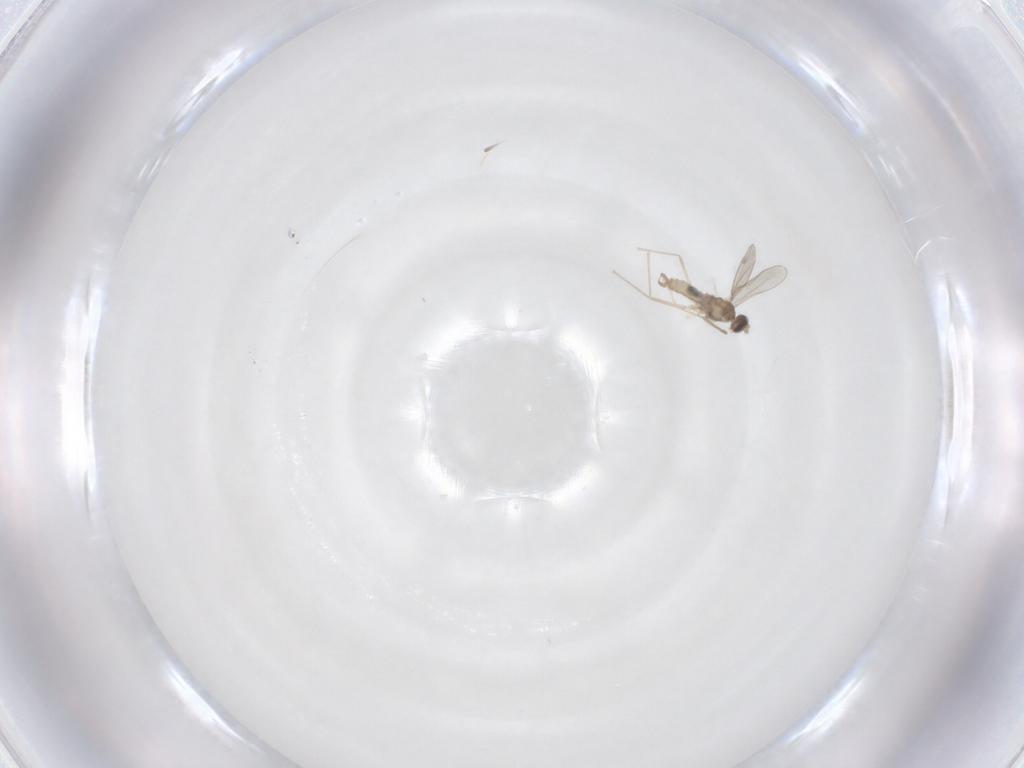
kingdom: Animalia
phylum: Arthropoda
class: Insecta
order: Diptera
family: Cecidomyiidae
